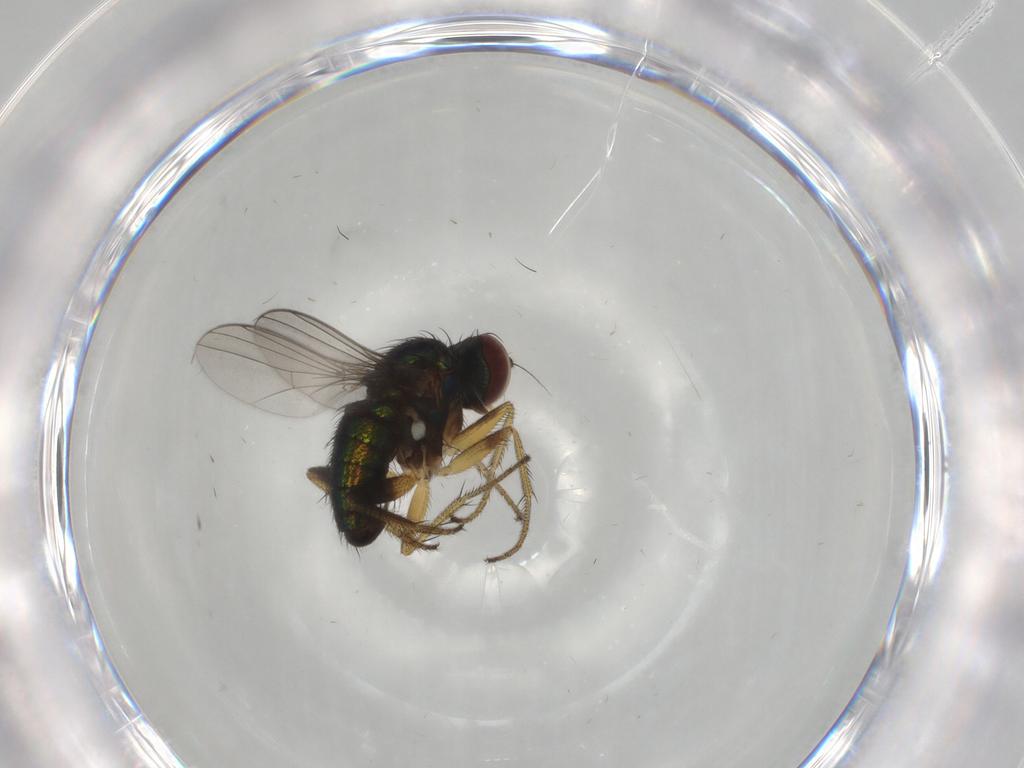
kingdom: Animalia
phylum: Arthropoda
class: Insecta
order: Diptera
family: Dolichopodidae
